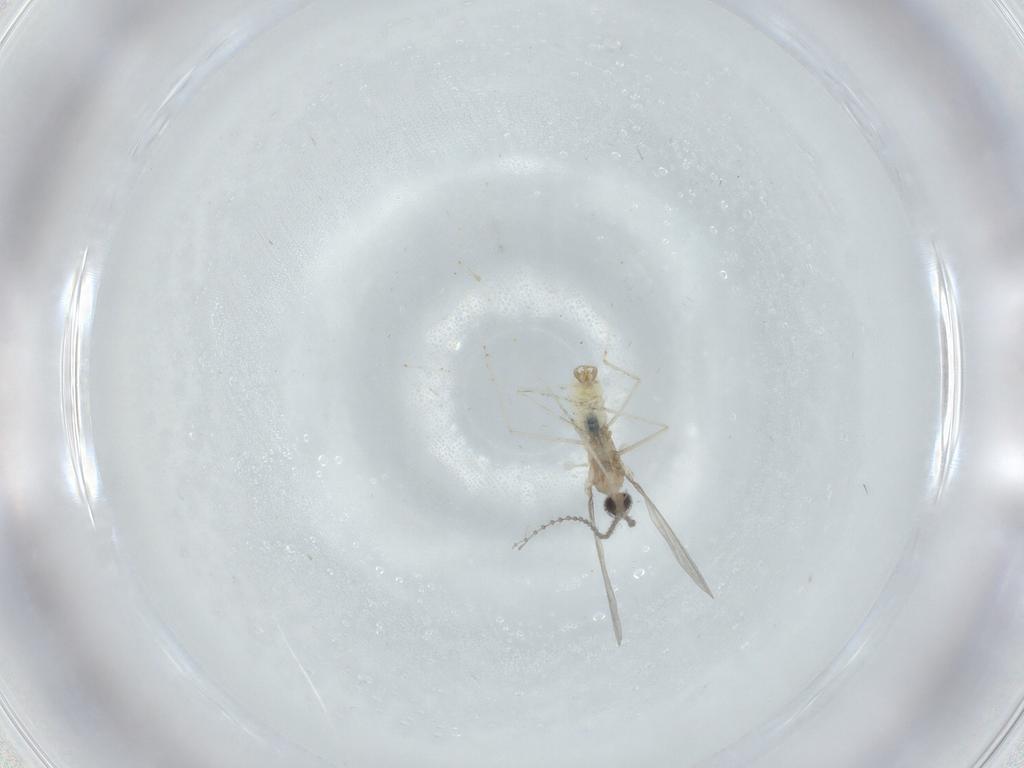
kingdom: Animalia
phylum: Arthropoda
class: Insecta
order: Diptera
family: Cecidomyiidae
